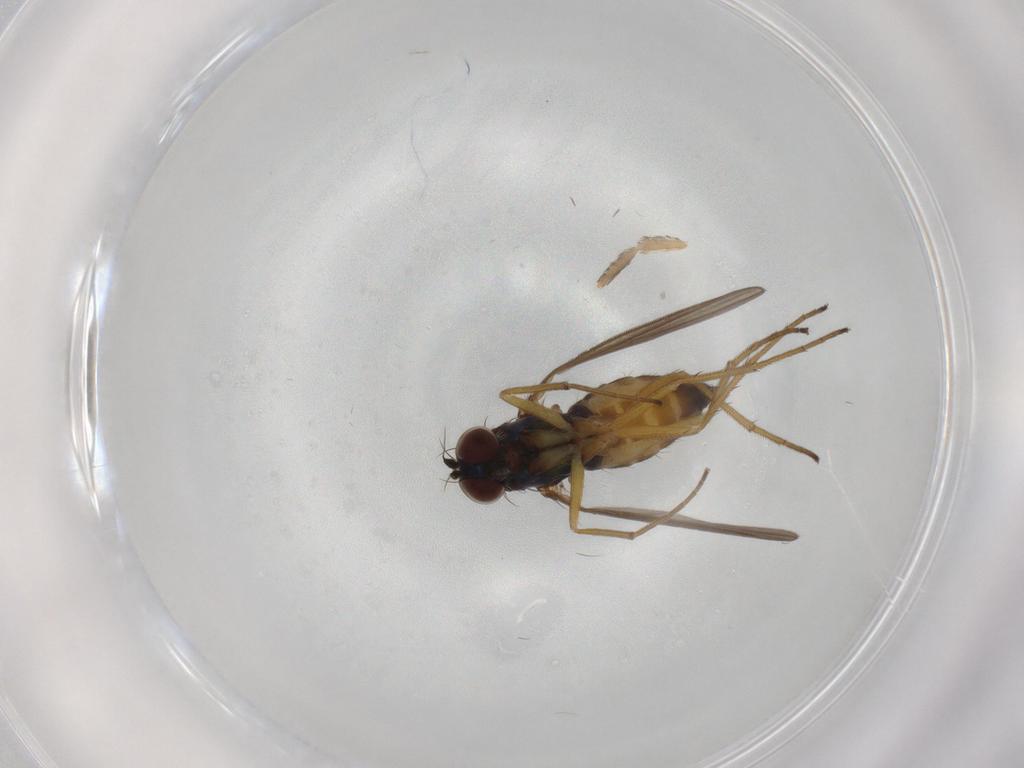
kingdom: Animalia
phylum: Arthropoda
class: Insecta
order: Diptera
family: Dolichopodidae
